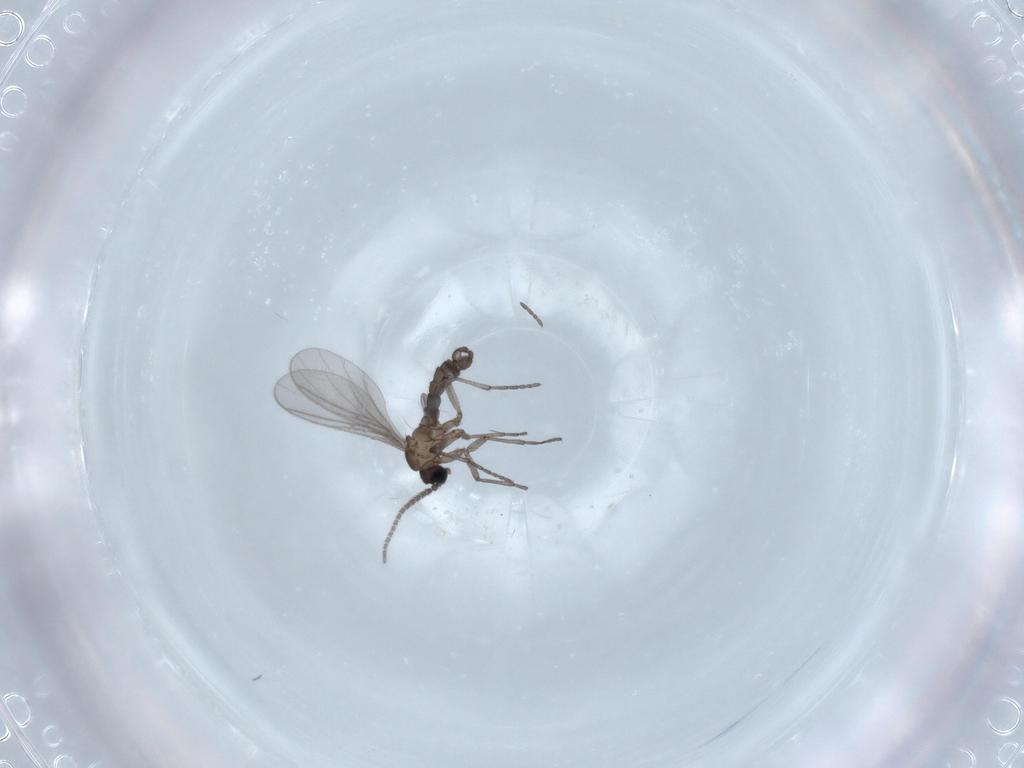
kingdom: Animalia
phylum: Arthropoda
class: Insecta
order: Diptera
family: Sciaridae
